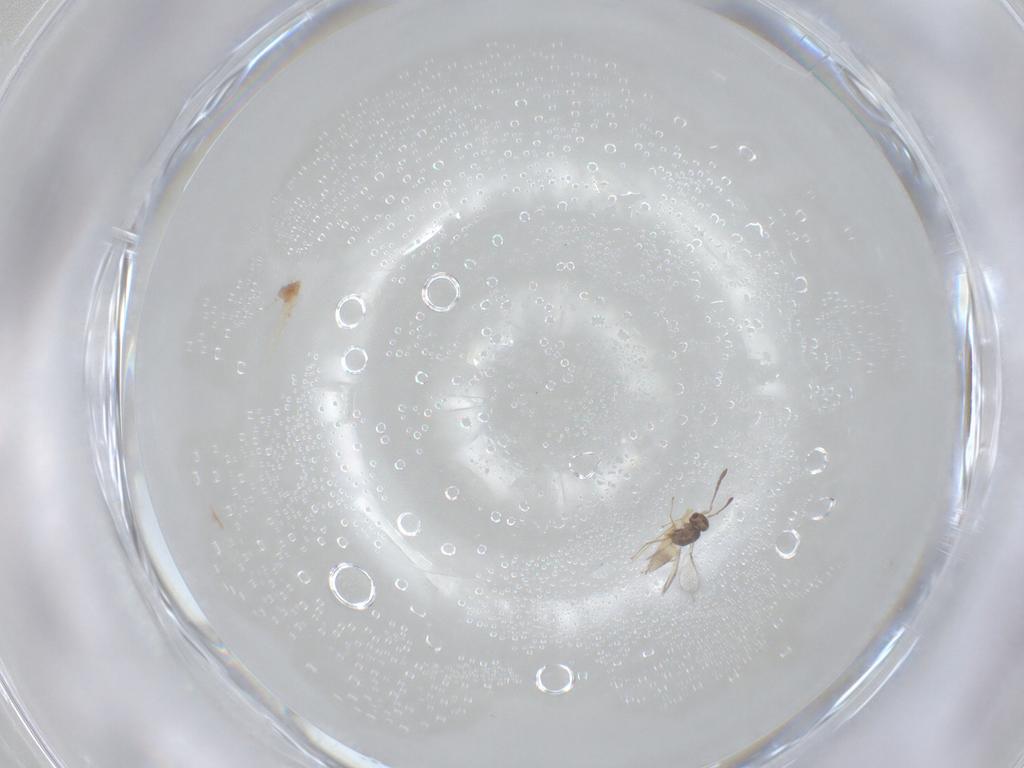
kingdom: Animalia
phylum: Arthropoda
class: Insecta
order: Hymenoptera
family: Mymaridae
